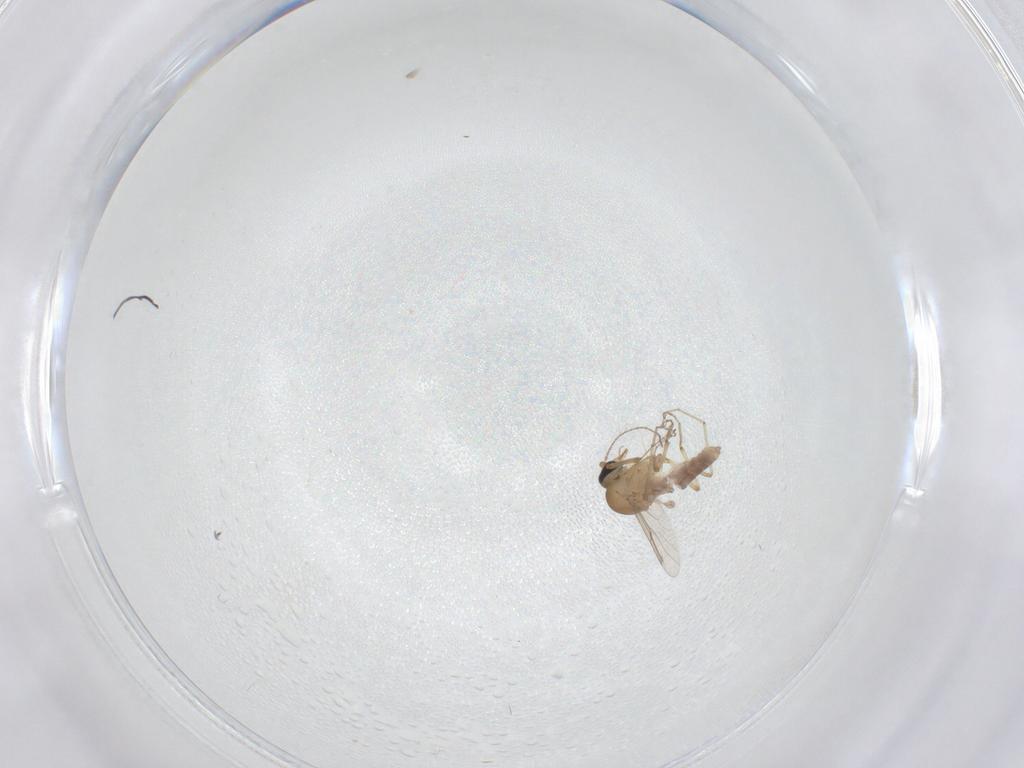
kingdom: Animalia
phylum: Arthropoda
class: Insecta
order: Diptera
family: Ceratopogonidae
